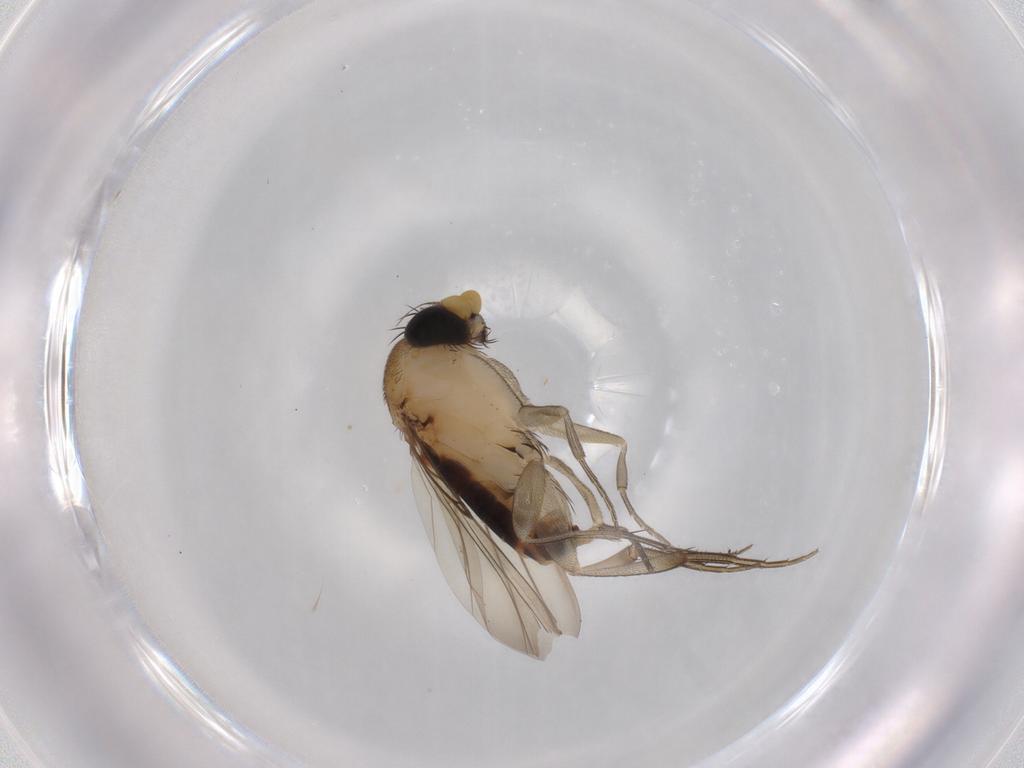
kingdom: Animalia
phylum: Arthropoda
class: Insecta
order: Diptera
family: Phoridae
